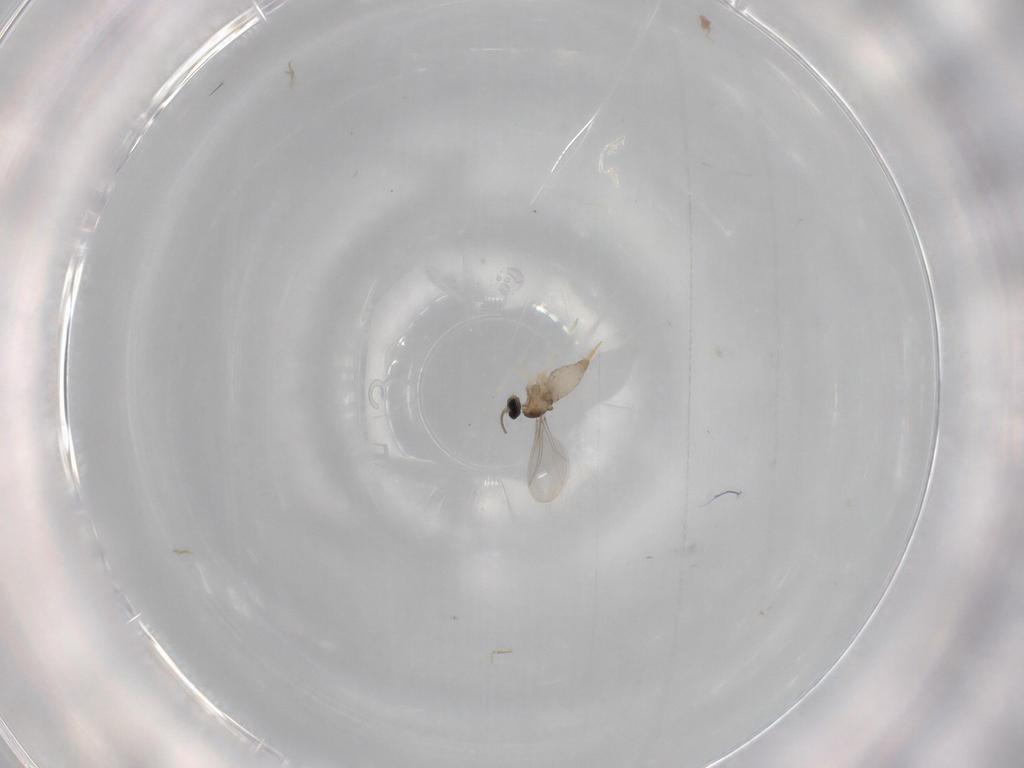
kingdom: Animalia
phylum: Arthropoda
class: Insecta
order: Diptera
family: Cecidomyiidae
